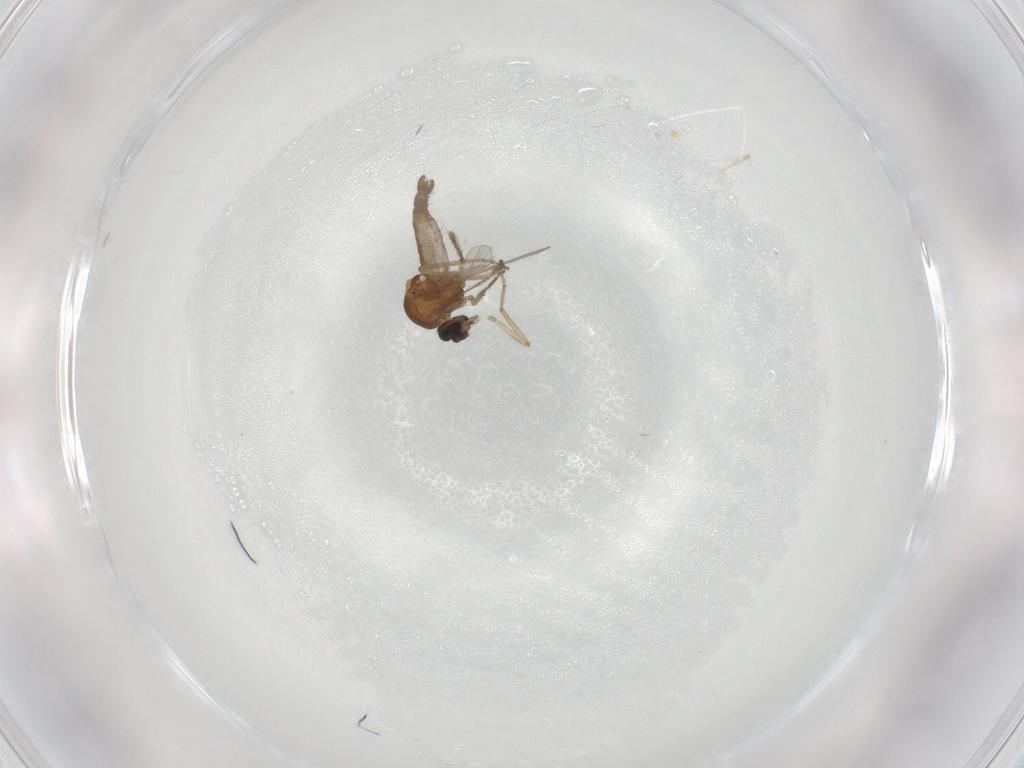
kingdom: Animalia
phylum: Arthropoda
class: Insecta
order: Diptera
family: Ceratopogonidae
